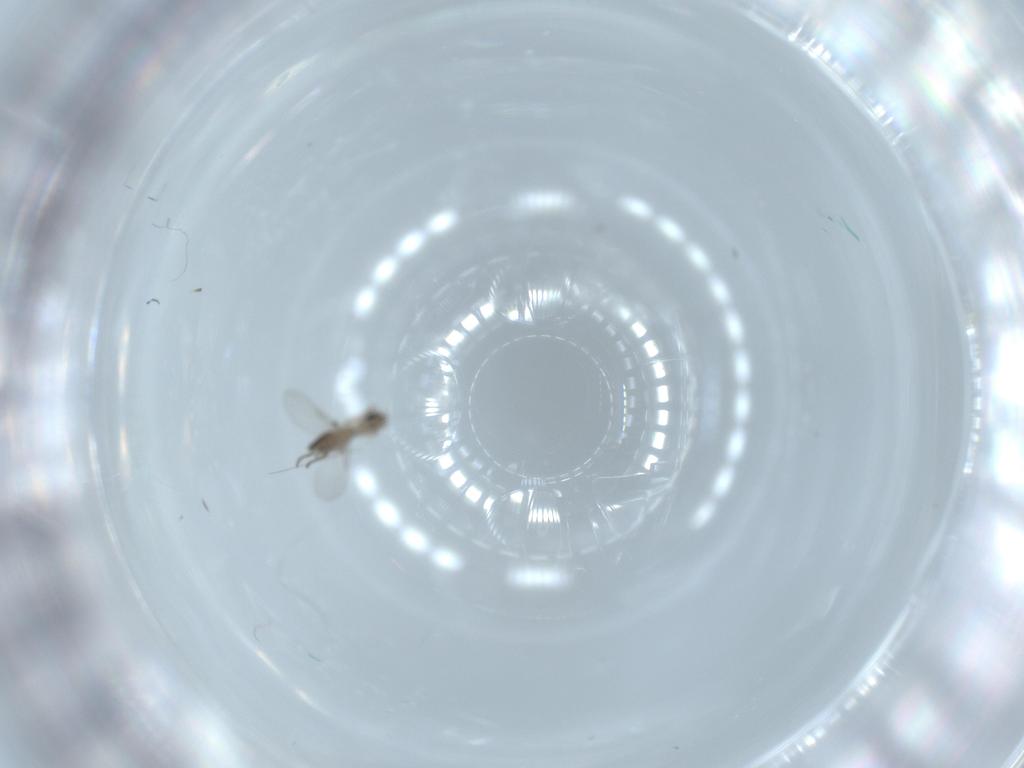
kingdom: Animalia
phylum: Arthropoda
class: Insecta
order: Diptera
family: Phoridae
